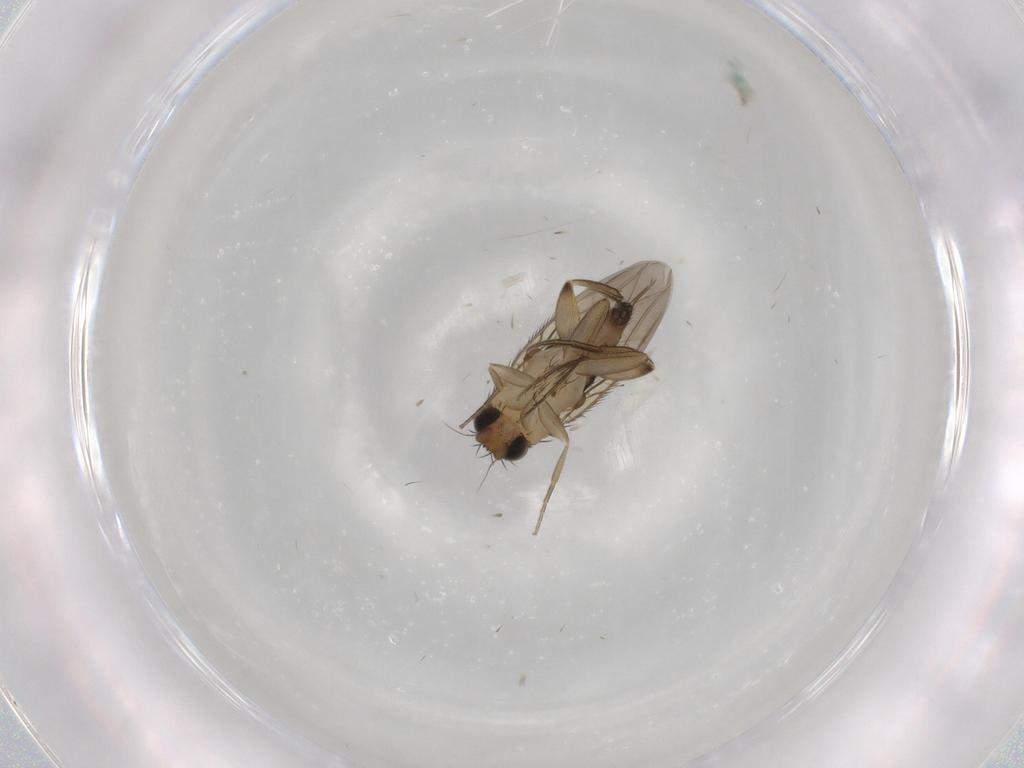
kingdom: Animalia
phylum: Arthropoda
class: Insecta
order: Diptera
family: Phoridae
